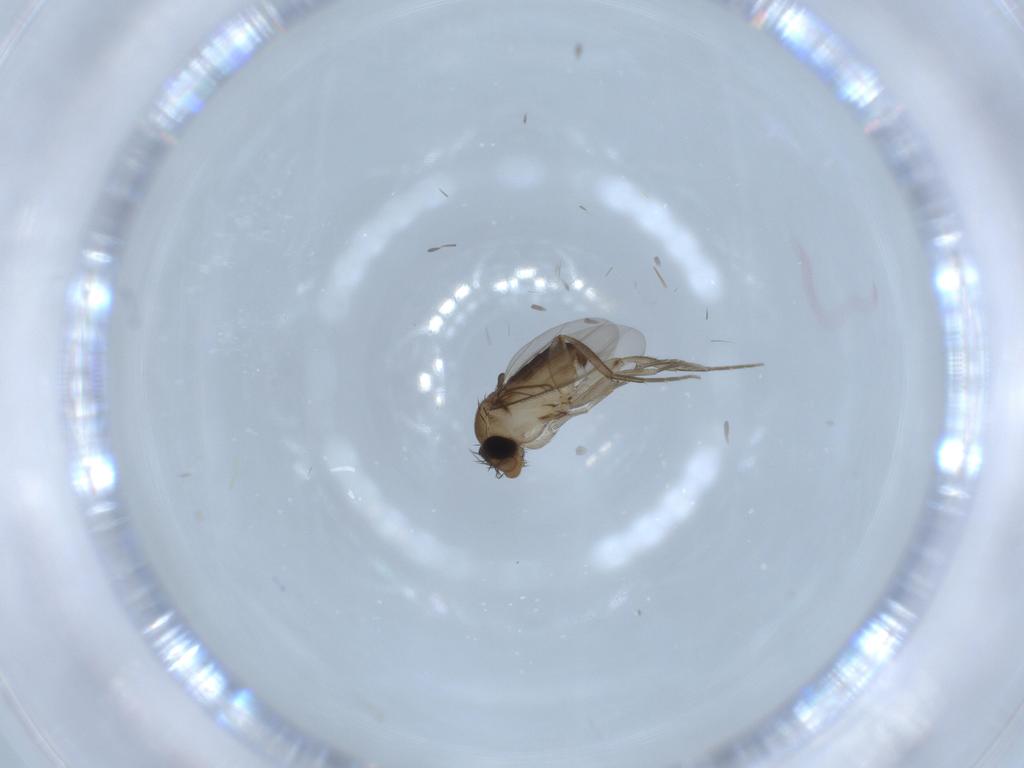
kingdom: Animalia
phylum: Arthropoda
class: Insecta
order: Diptera
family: Phoridae
